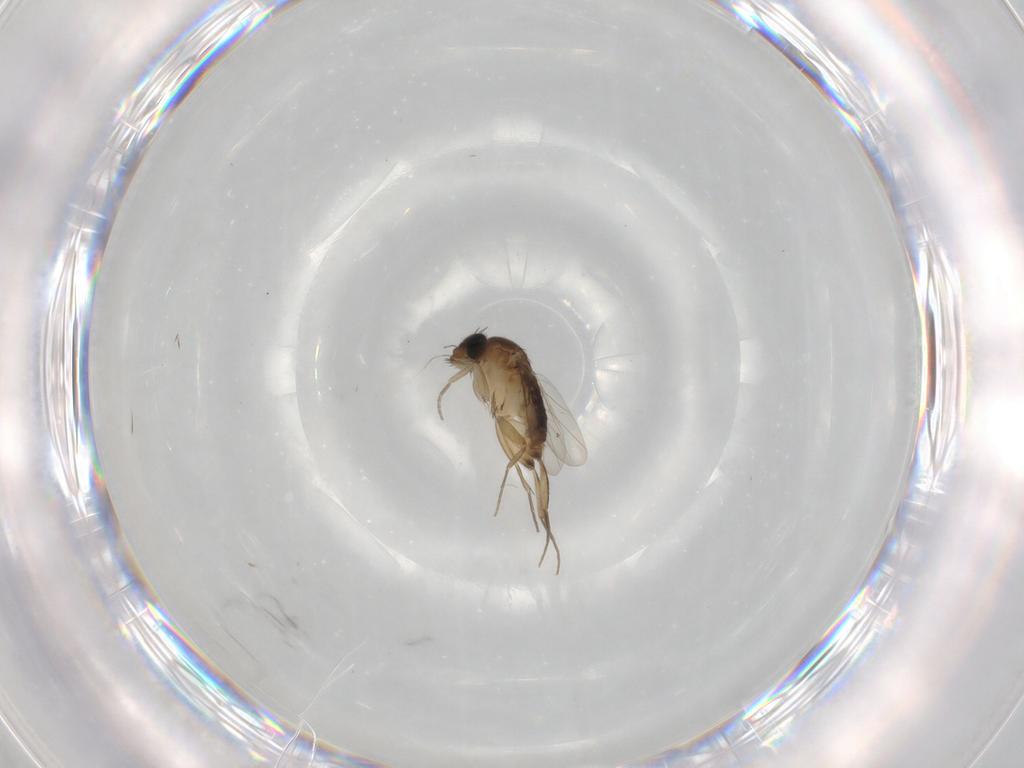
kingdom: Animalia
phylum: Arthropoda
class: Insecta
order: Diptera
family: Phoridae
